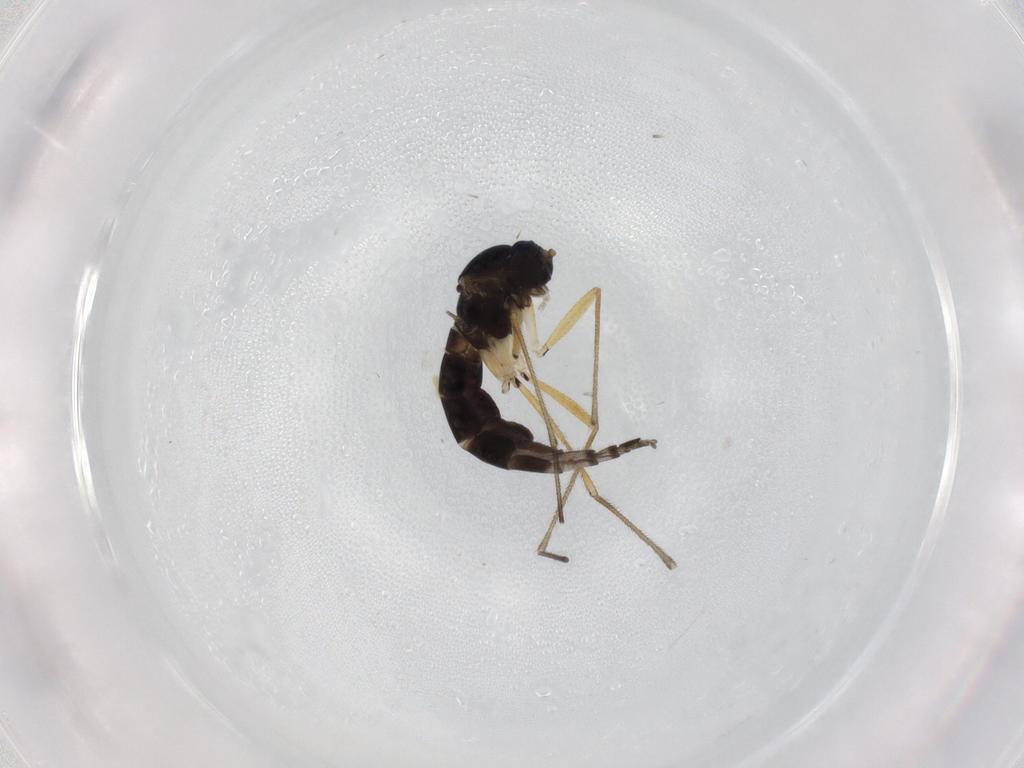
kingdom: Animalia
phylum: Arthropoda
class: Insecta
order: Diptera
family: Sciaridae
